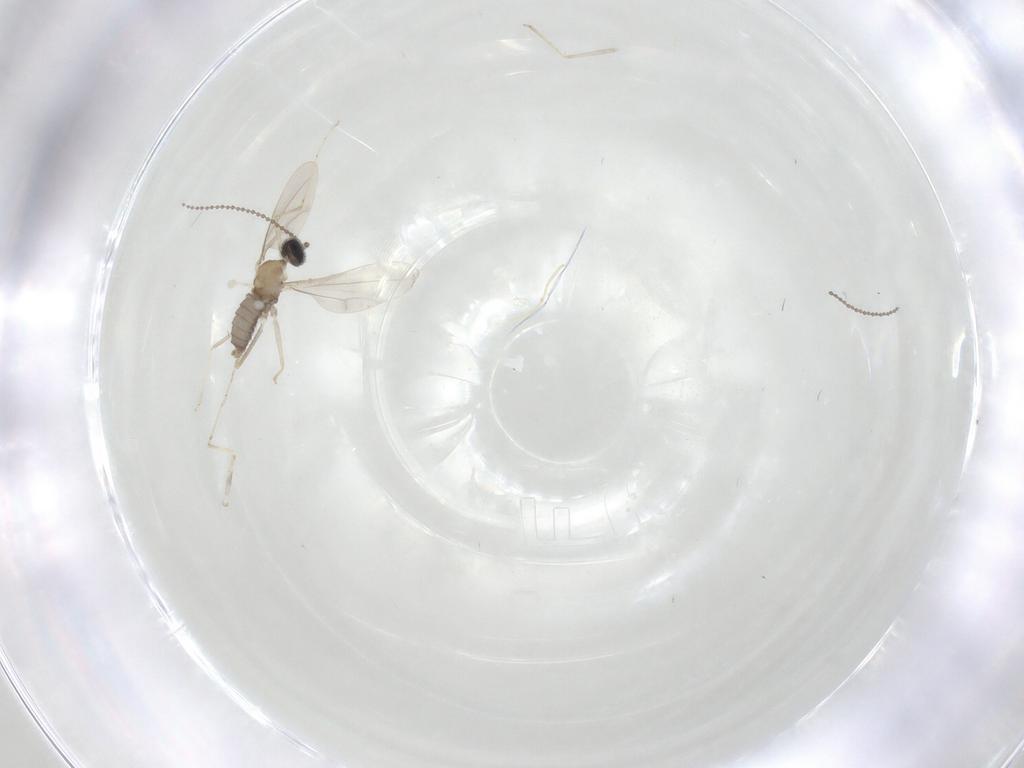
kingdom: Animalia
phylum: Arthropoda
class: Insecta
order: Diptera
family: Cecidomyiidae
